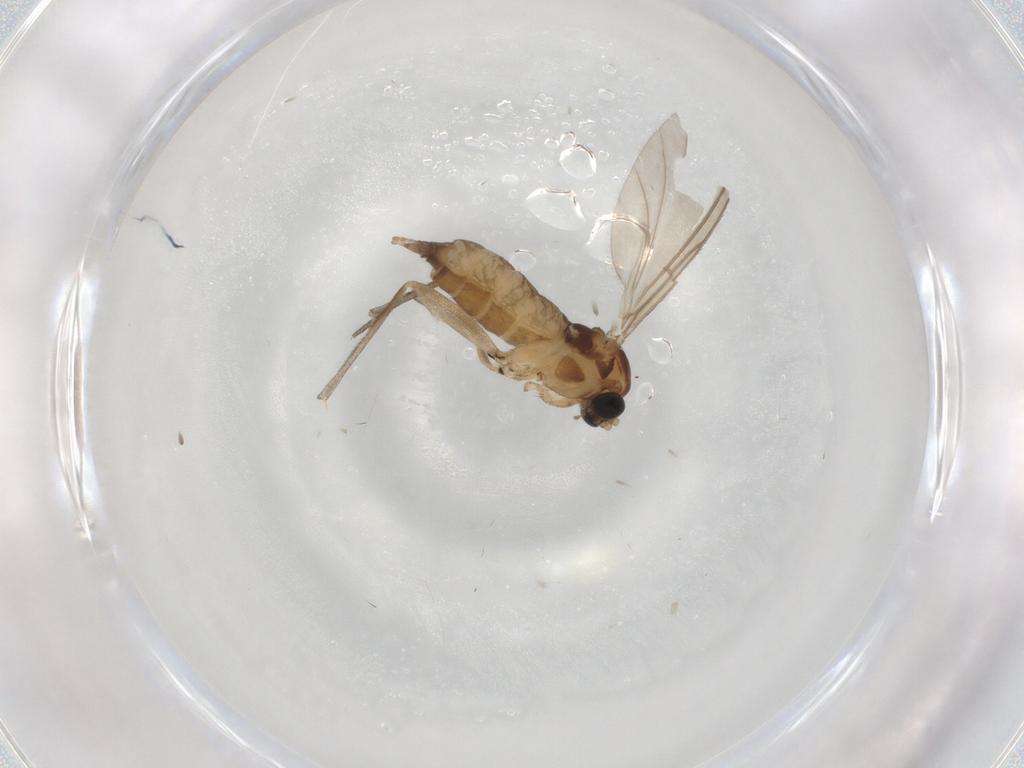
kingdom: Animalia
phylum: Arthropoda
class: Insecta
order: Diptera
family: Sciaridae
